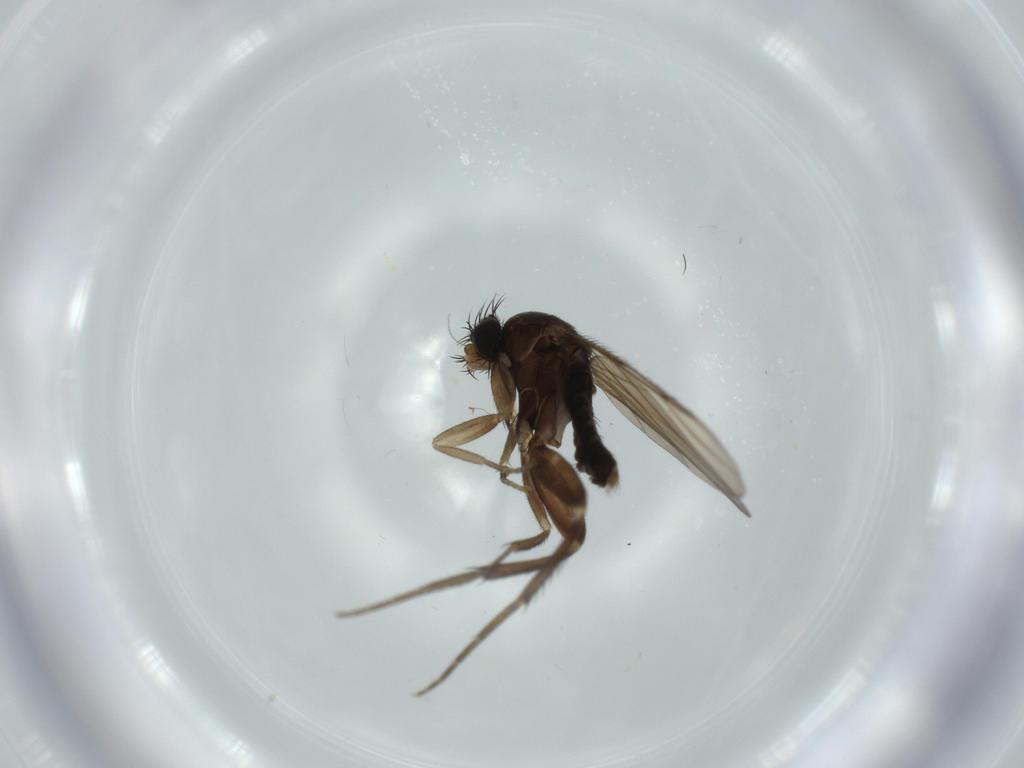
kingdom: Animalia
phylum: Arthropoda
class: Insecta
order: Diptera
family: Phoridae
